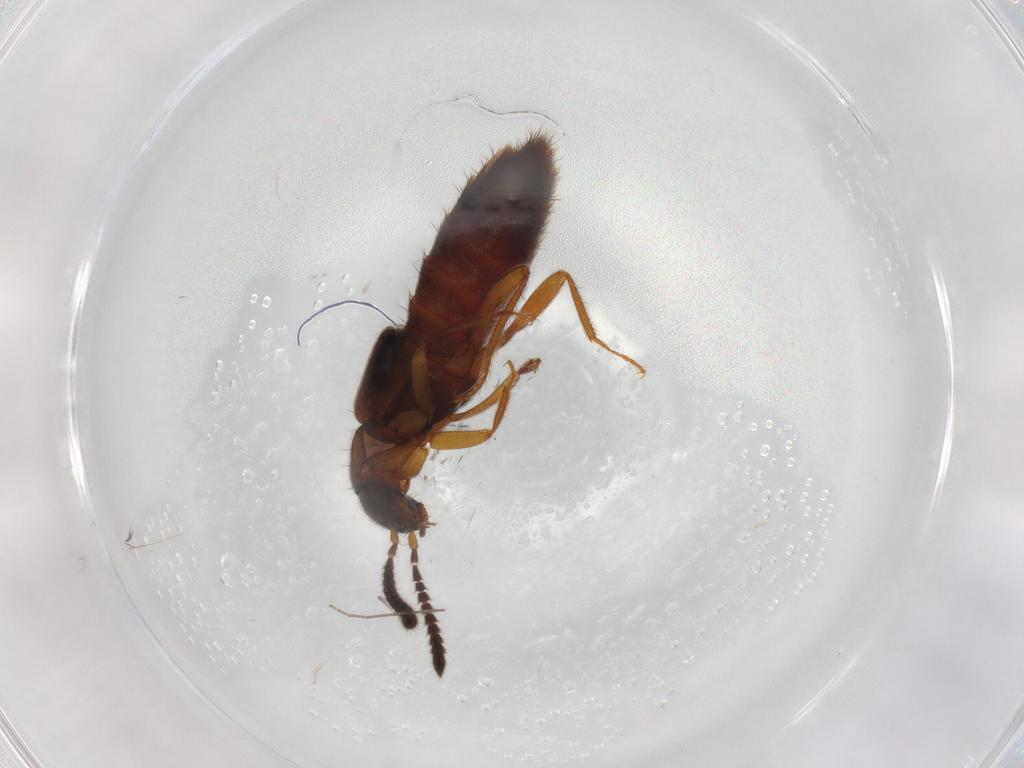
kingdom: Animalia
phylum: Arthropoda
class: Insecta
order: Coleoptera
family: Staphylinidae
